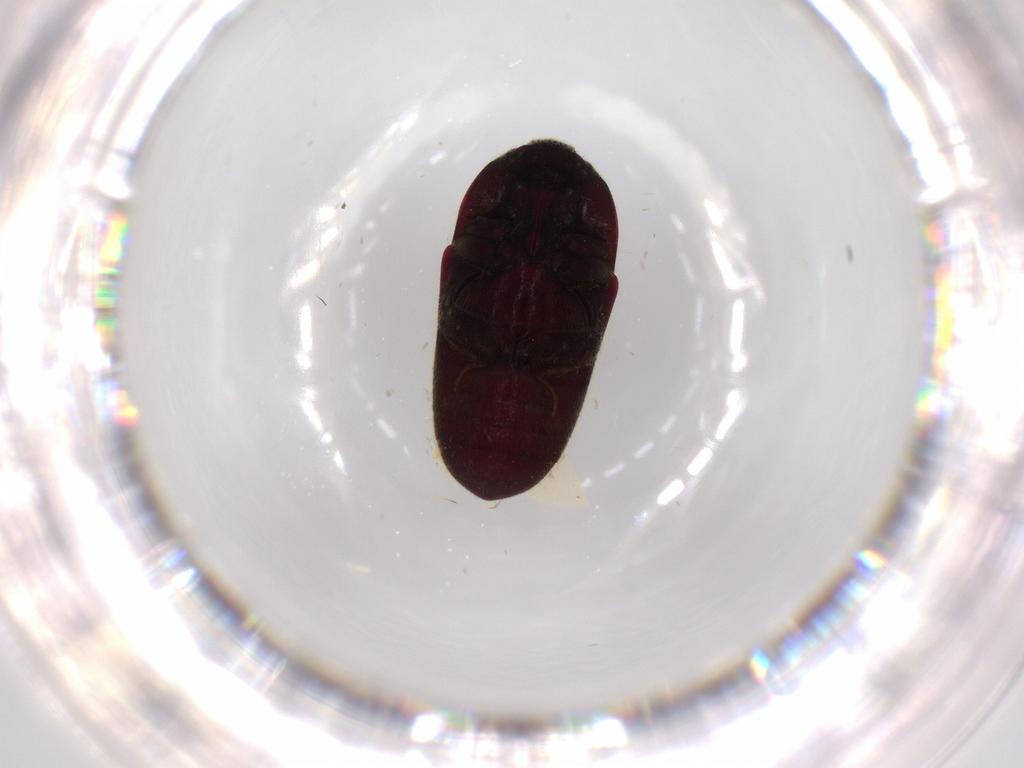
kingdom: Animalia
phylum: Arthropoda
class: Insecta
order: Coleoptera
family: Throscidae
